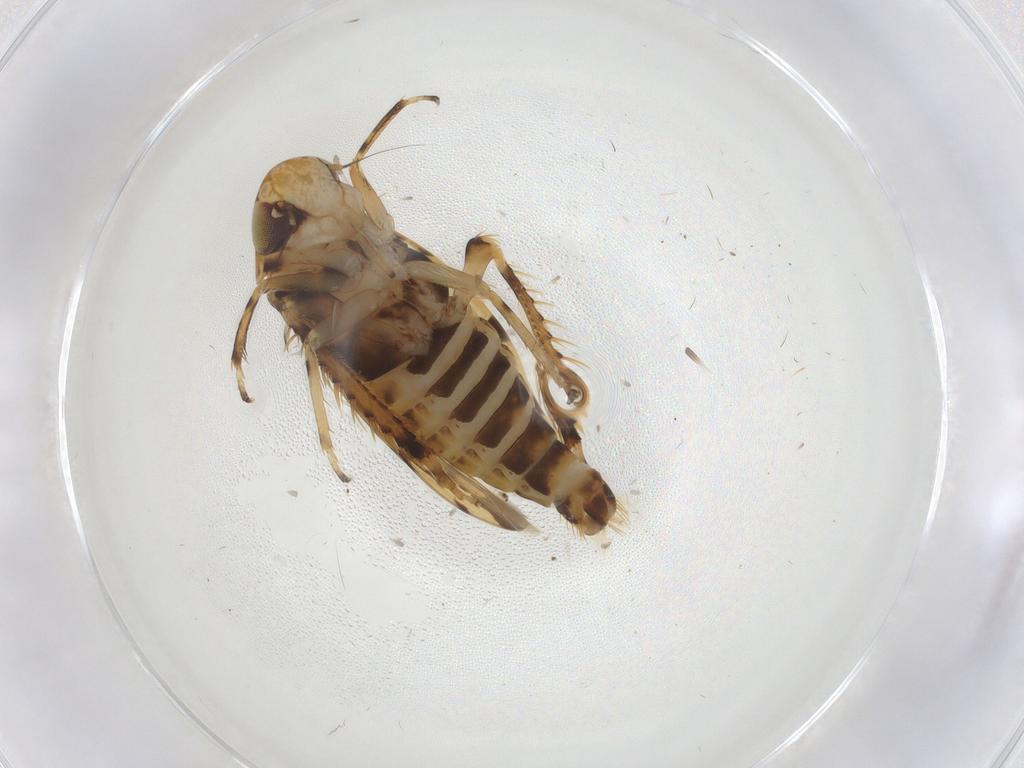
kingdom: Animalia
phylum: Arthropoda
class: Insecta
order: Hemiptera
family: Cicadellidae
